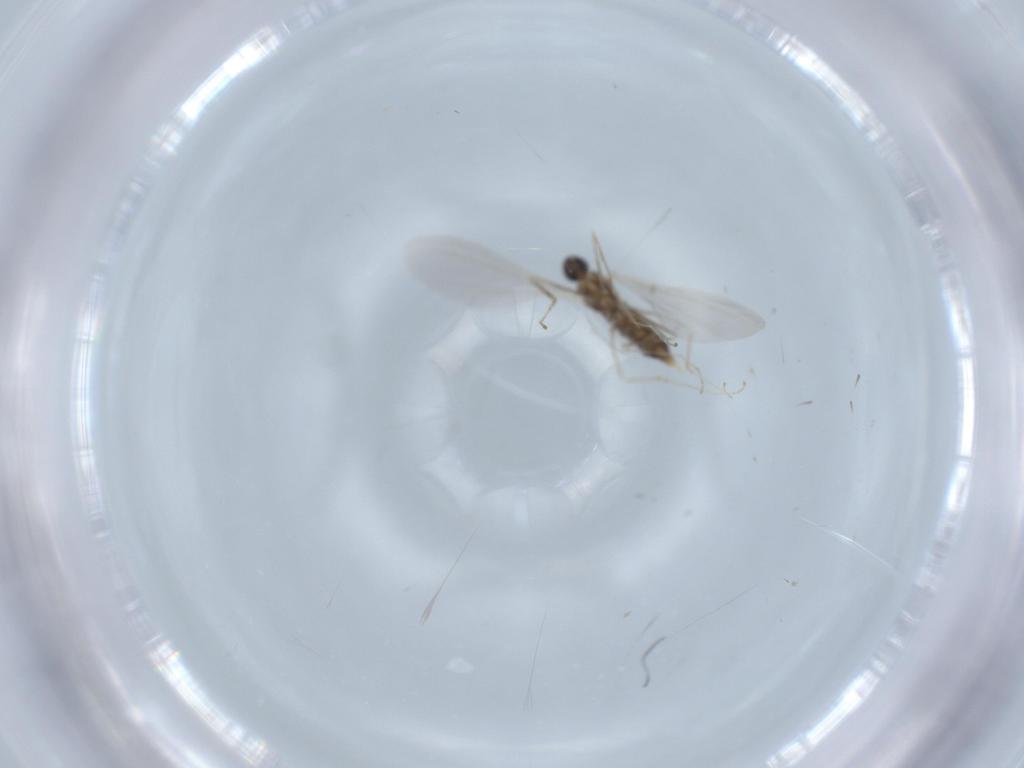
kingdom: Animalia
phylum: Arthropoda
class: Insecta
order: Diptera
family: Cecidomyiidae
